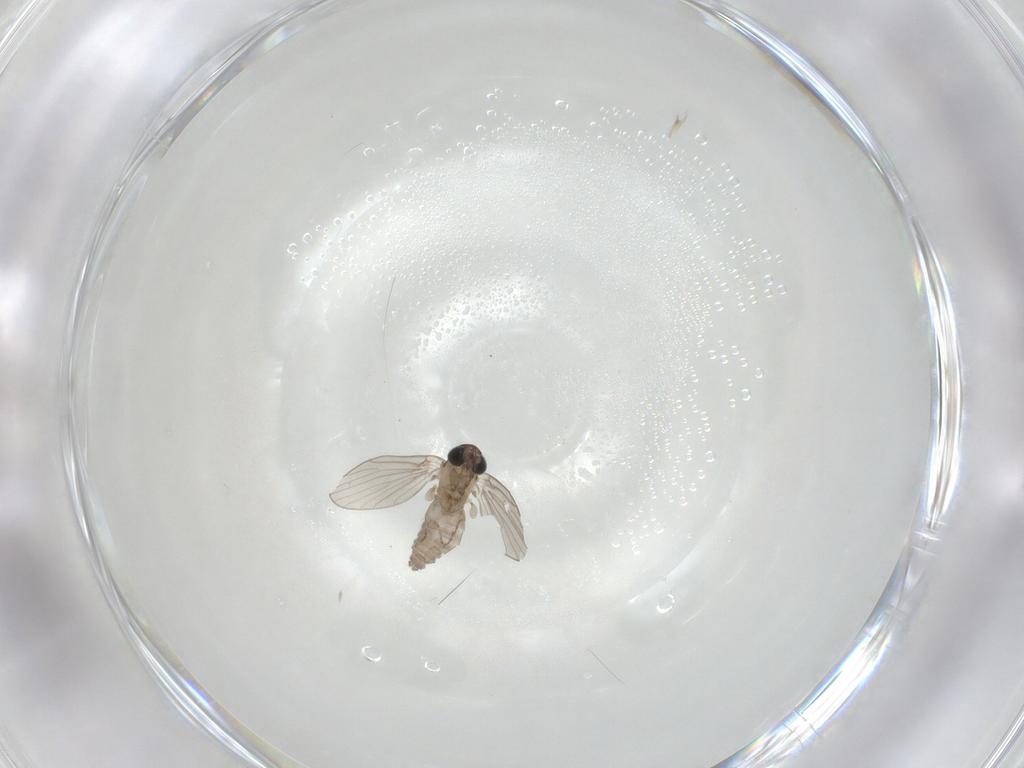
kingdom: Animalia
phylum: Arthropoda
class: Insecta
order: Diptera
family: Psychodidae
